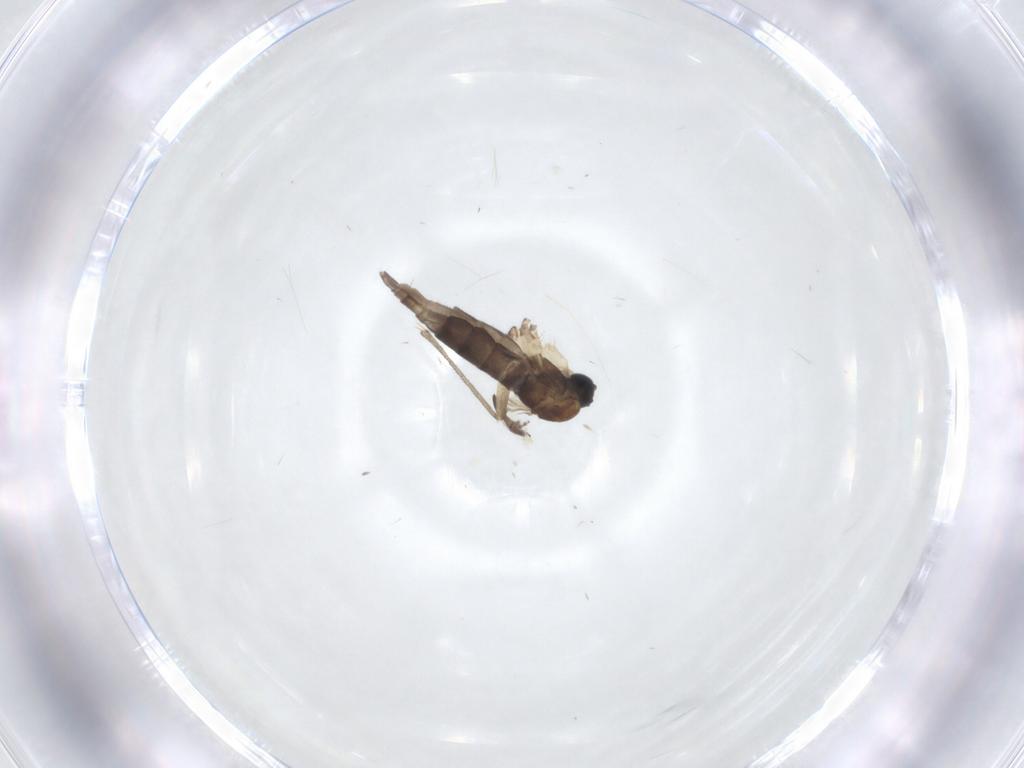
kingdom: Animalia
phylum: Arthropoda
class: Insecta
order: Diptera
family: Sciaridae
